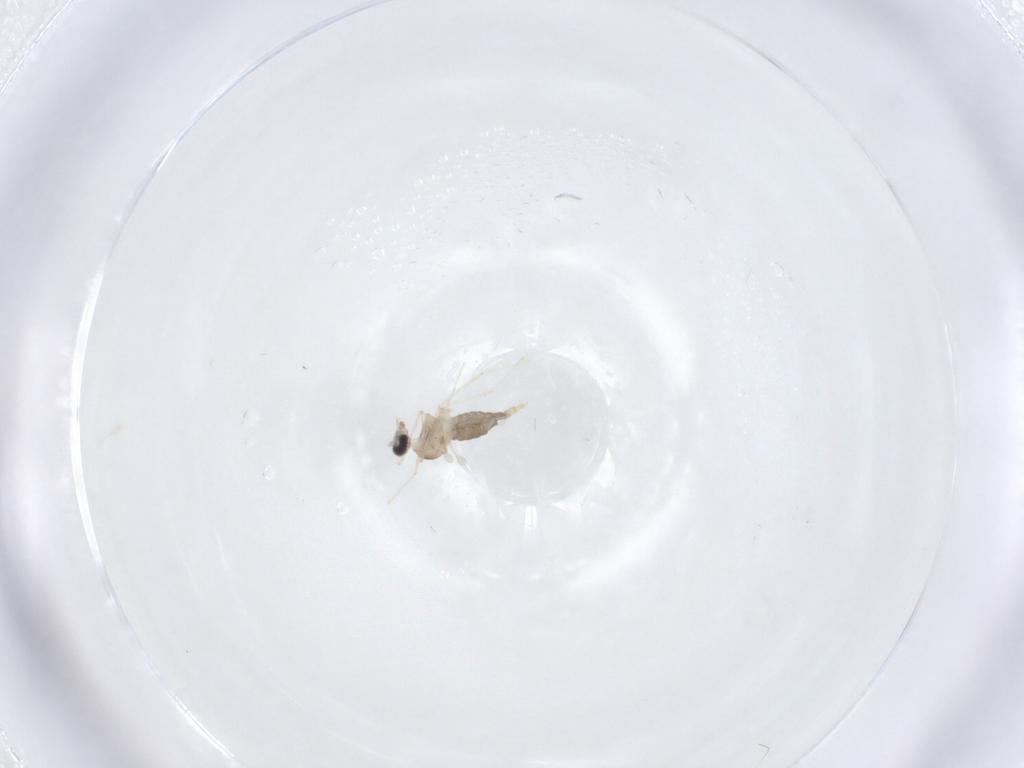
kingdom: Animalia
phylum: Arthropoda
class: Insecta
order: Diptera
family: Cecidomyiidae
